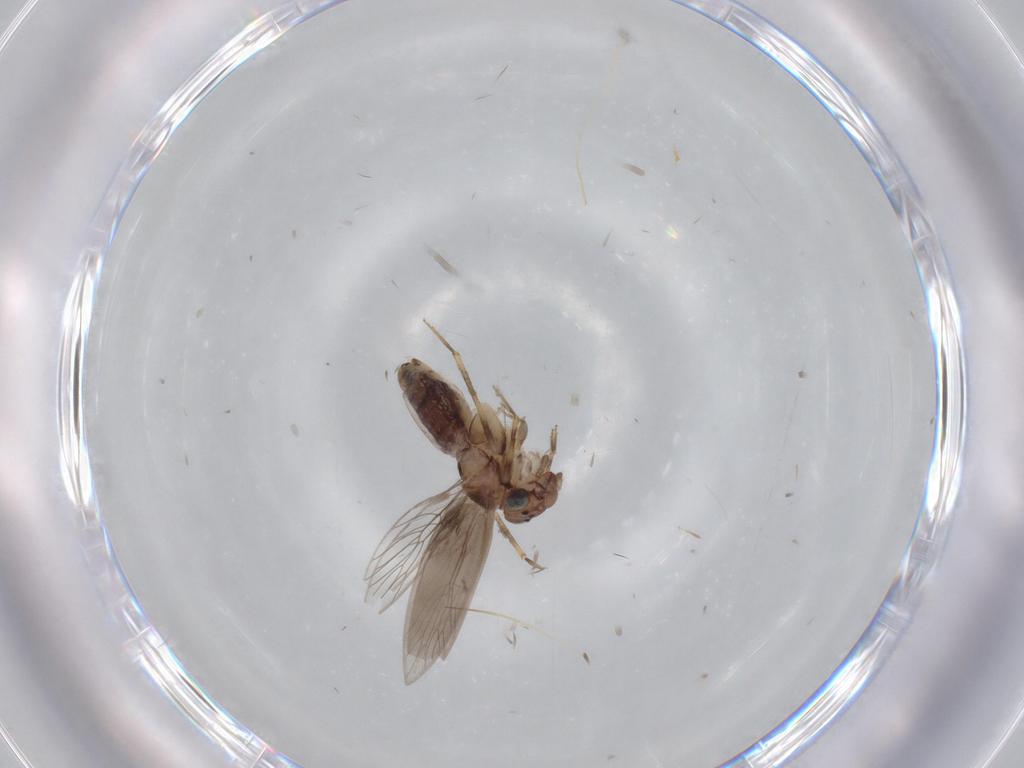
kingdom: Animalia
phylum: Arthropoda
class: Insecta
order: Psocodea
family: Lepidopsocidae
